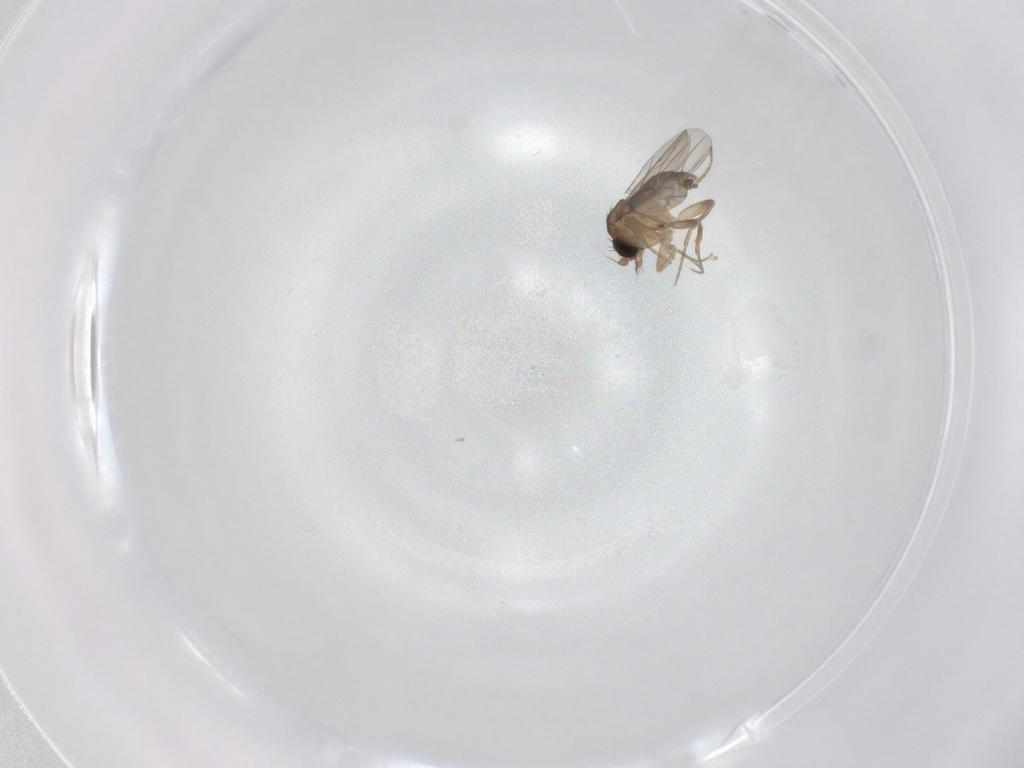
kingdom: Animalia
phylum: Arthropoda
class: Insecta
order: Diptera
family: Phoridae
